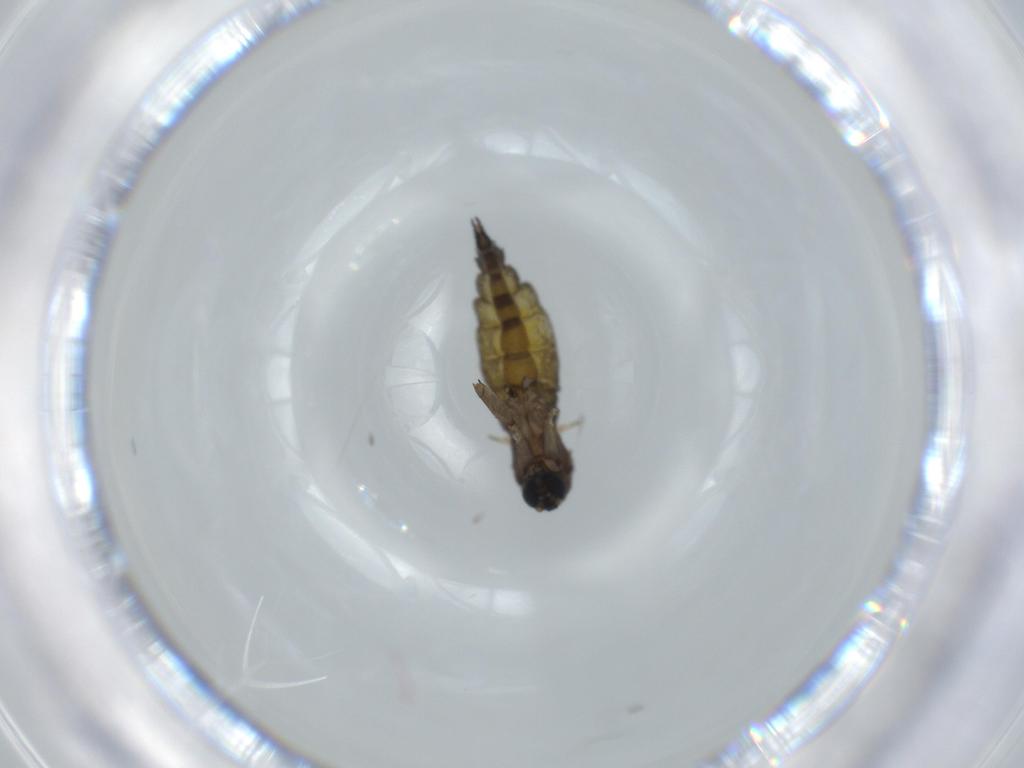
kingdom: Animalia
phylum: Arthropoda
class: Insecta
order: Diptera
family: Sciaridae
